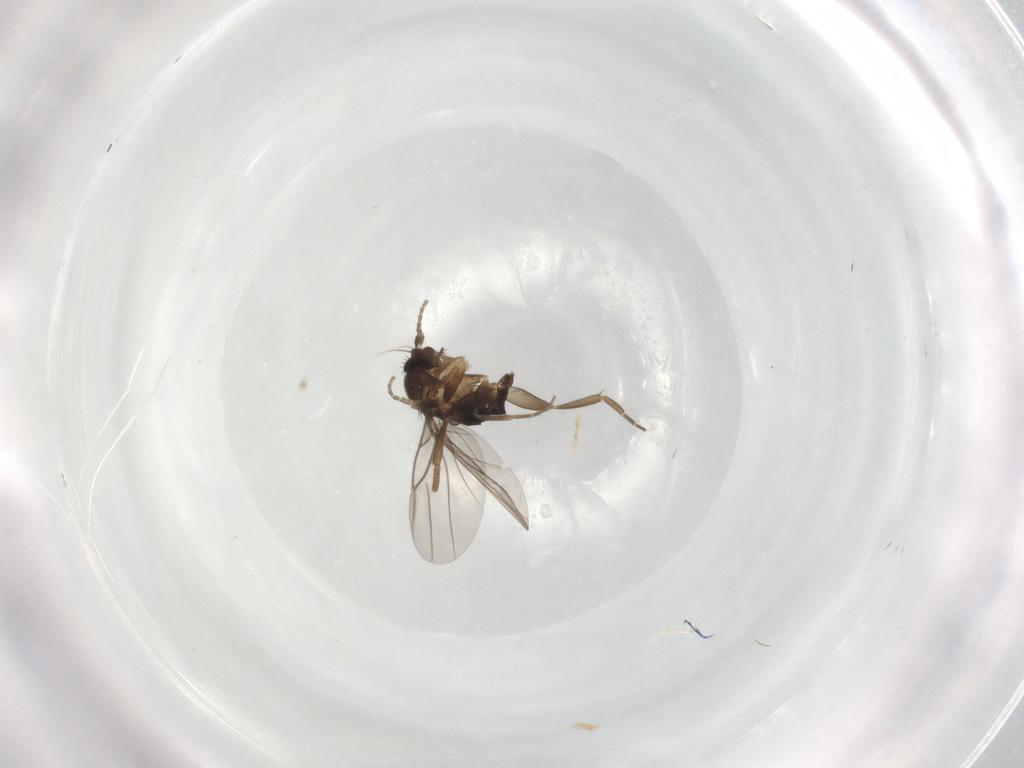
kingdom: Animalia
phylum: Arthropoda
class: Insecta
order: Diptera
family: Phoridae
